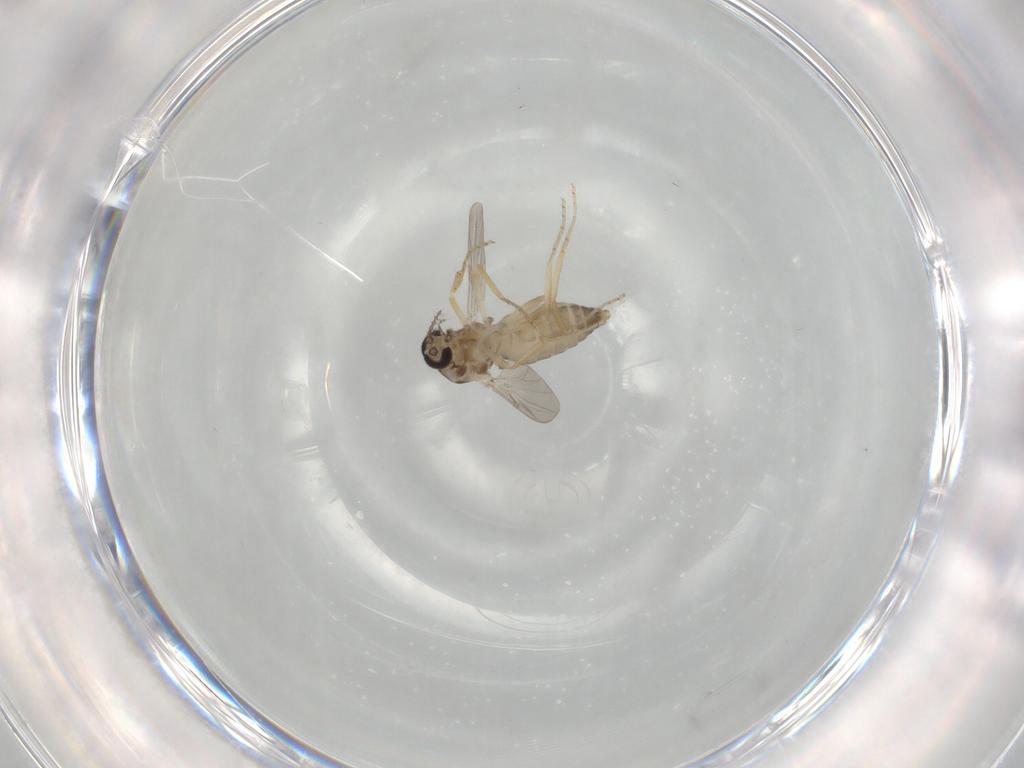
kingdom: Animalia
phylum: Arthropoda
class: Insecta
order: Diptera
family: Ceratopogonidae
